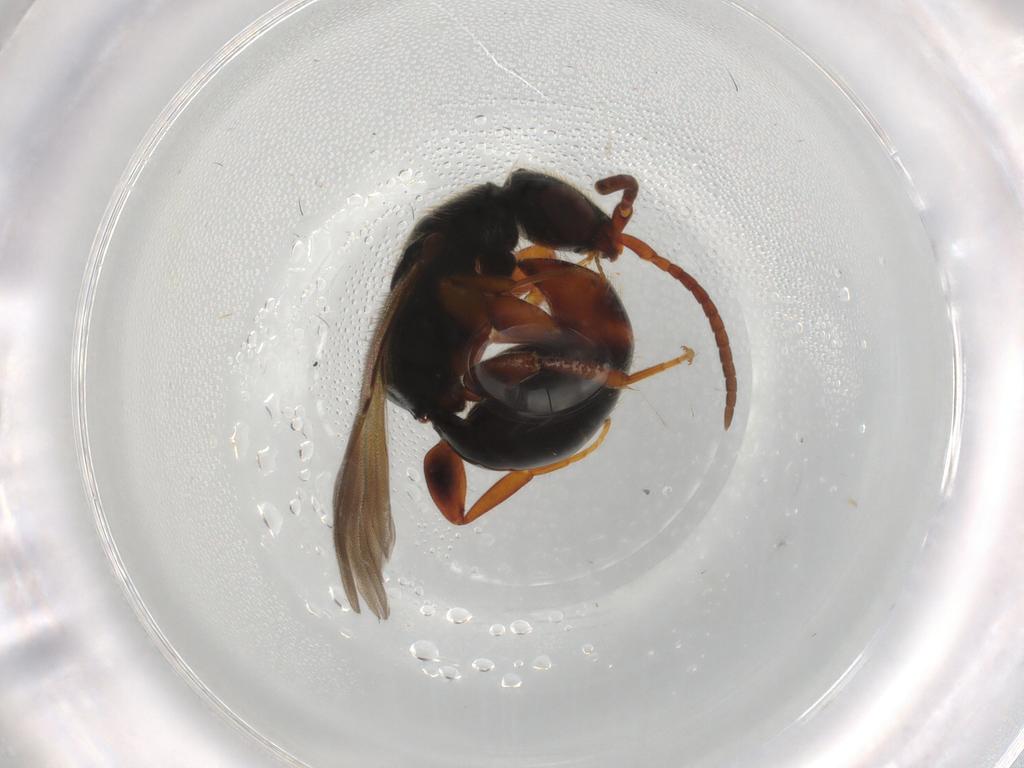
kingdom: Animalia
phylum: Arthropoda
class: Insecta
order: Hymenoptera
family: Bethylidae
